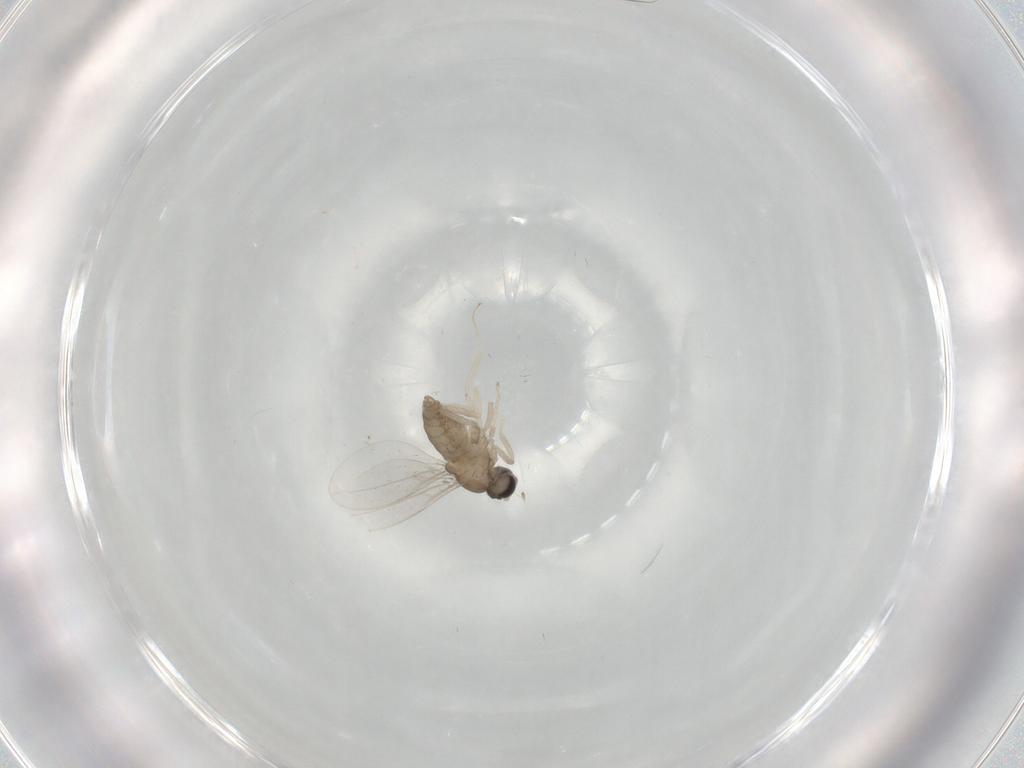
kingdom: Animalia
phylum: Arthropoda
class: Insecta
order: Diptera
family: Cecidomyiidae
